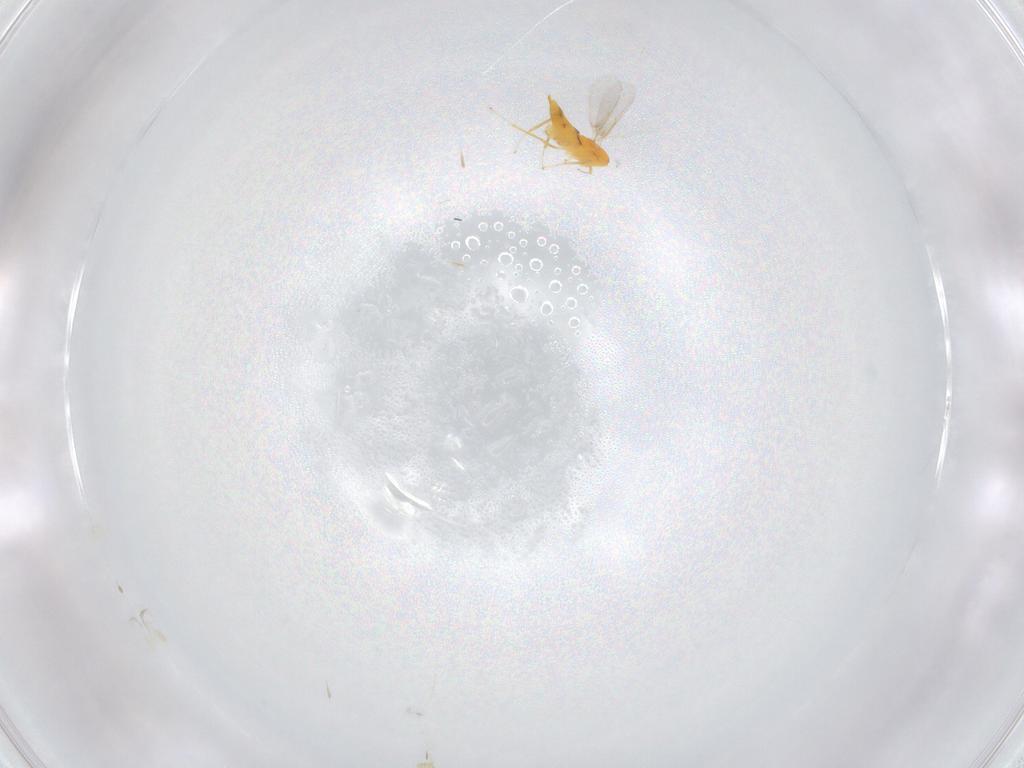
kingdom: Animalia
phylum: Arthropoda
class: Insecta
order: Hymenoptera
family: Aphelinidae
